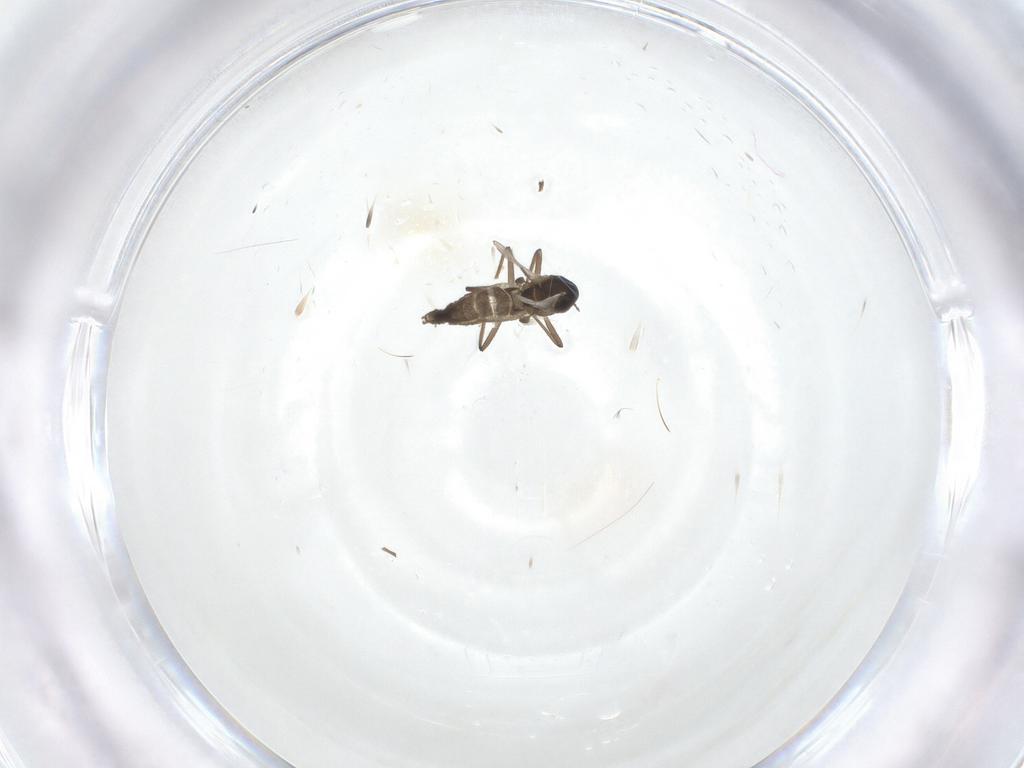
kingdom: Animalia
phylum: Arthropoda
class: Insecta
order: Diptera
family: Chironomidae
